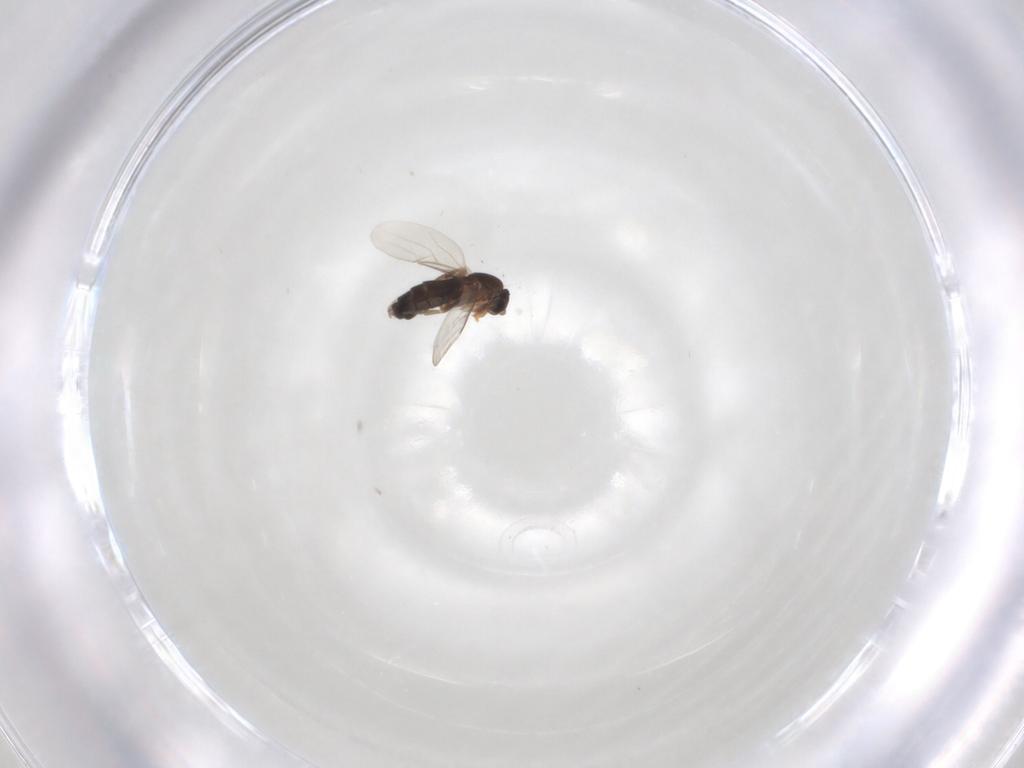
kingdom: Animalia
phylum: Arthropoda
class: Insecta
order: Diptera
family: Phoridae
